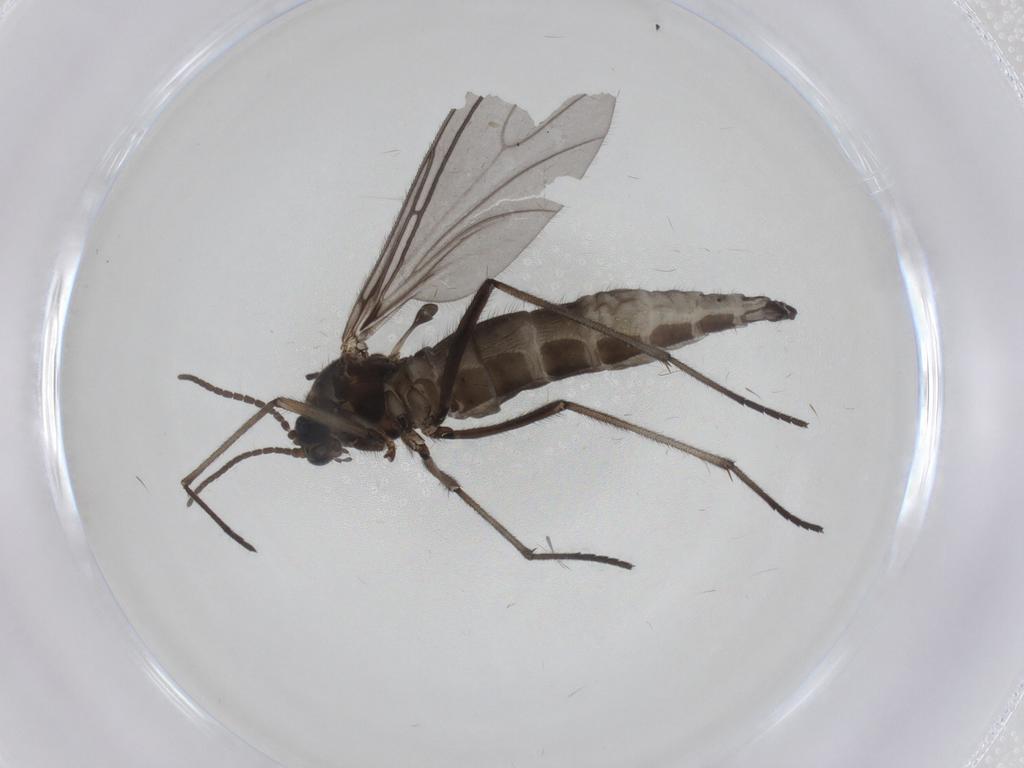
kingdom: Animalia
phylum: Arthropoda
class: Insecta
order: Diptera
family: Sciaridae
